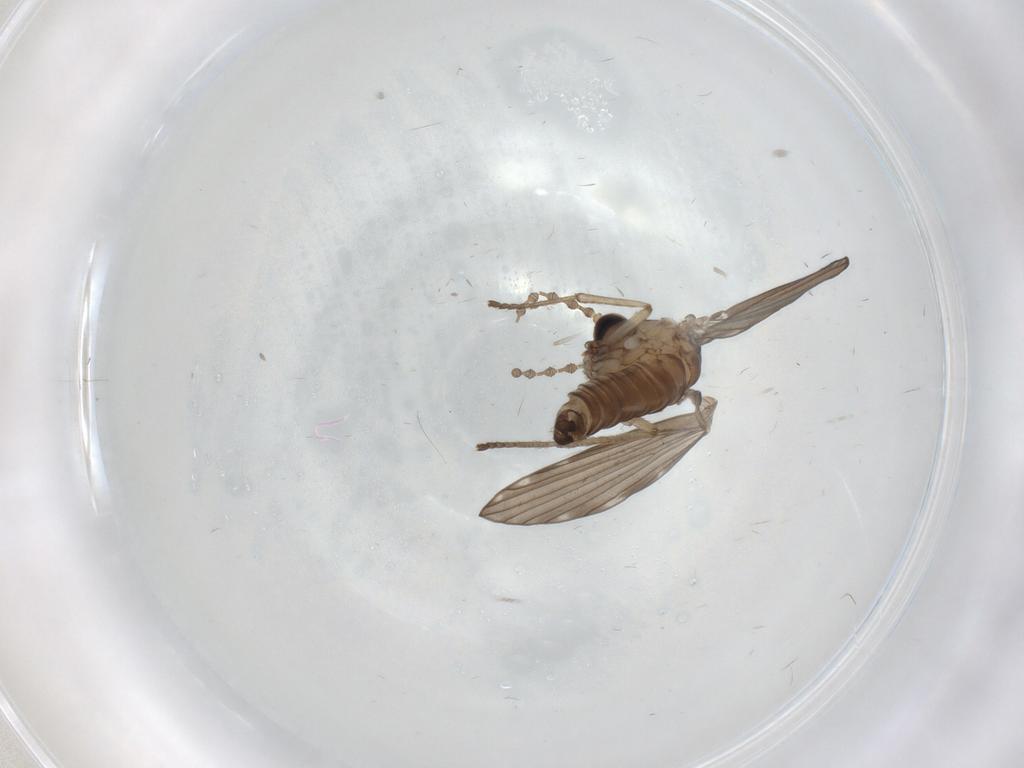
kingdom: Animalia
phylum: Arthropoda
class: Insecta
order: Diptera
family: Psychodidae
